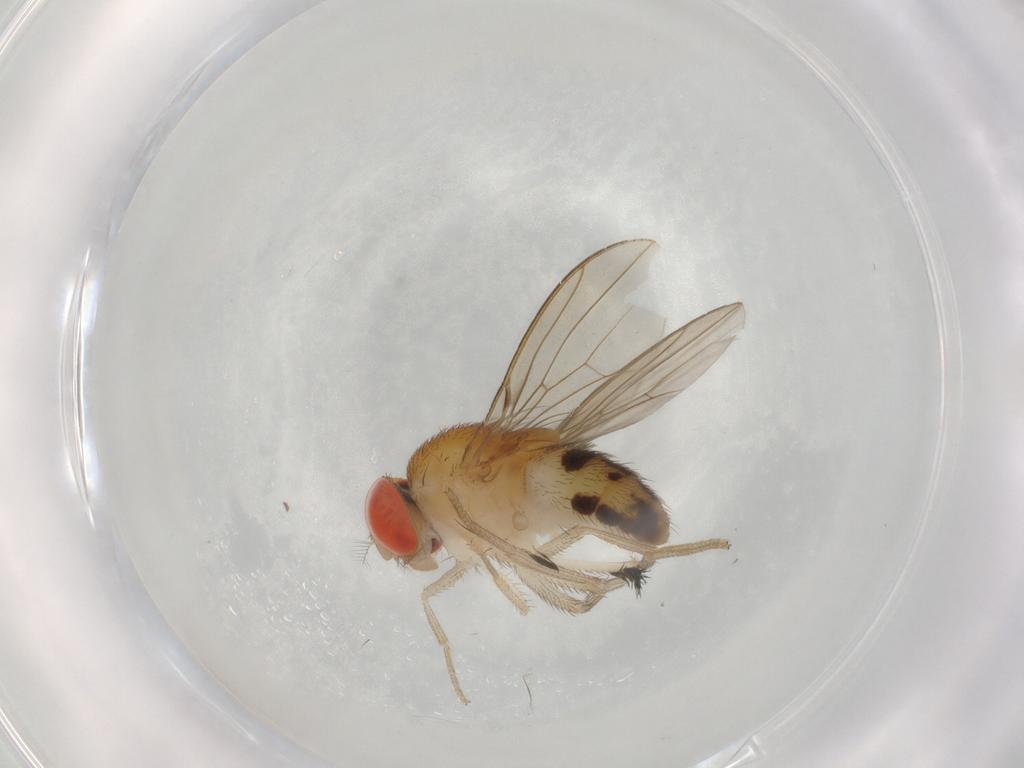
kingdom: Animalia
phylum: Arthropoda
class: Insecta
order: Diptera
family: Drosophilidae
